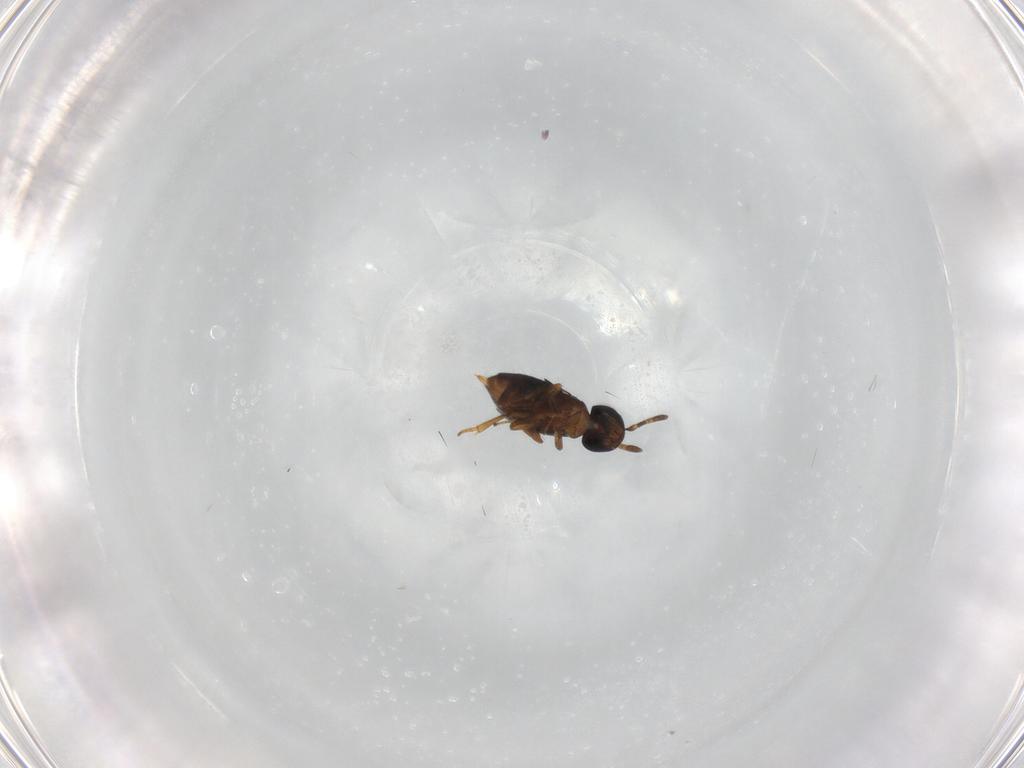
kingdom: Animalia
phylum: Arthropoda
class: Insecta
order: Hymenoptera
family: Encyrtidae
